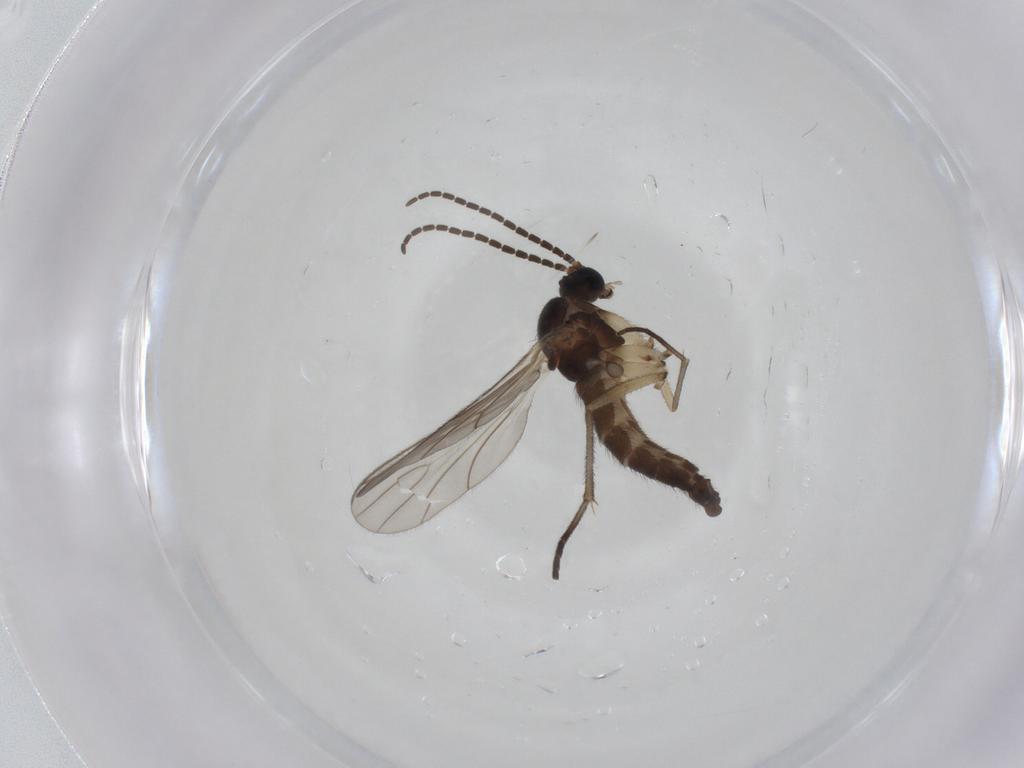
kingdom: Animalia
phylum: Arthropoda
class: Insecta
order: Diptera
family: Sciaridae
